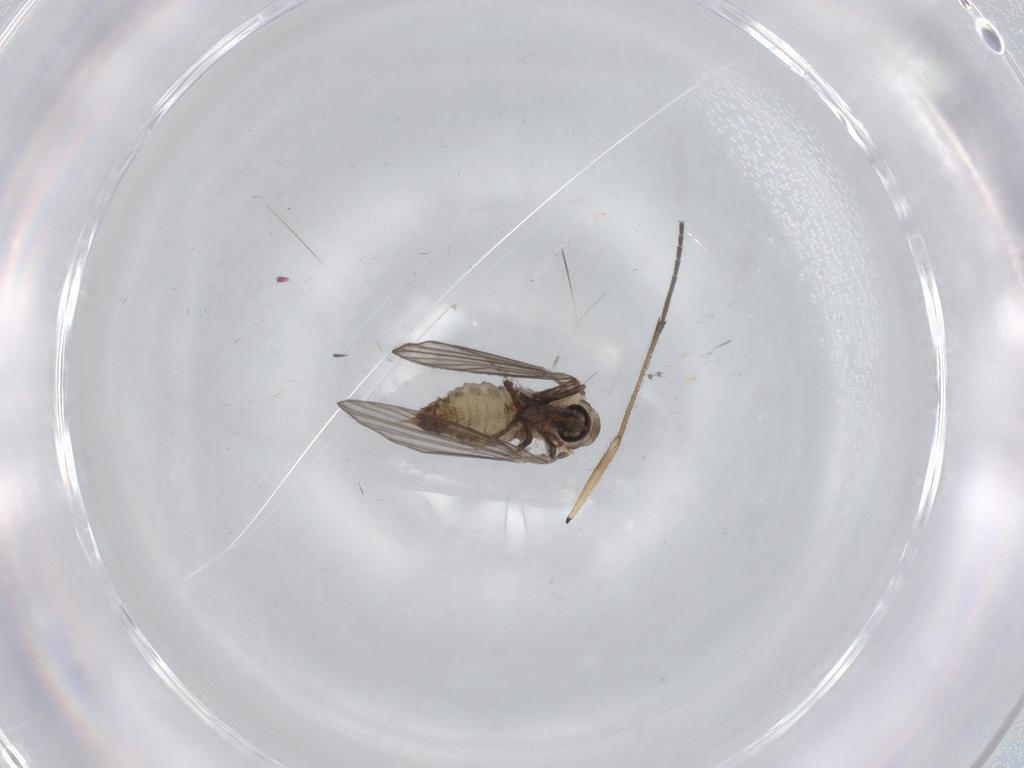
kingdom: Animalia
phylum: Arthropoda
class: Insecta
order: Diptera
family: Psychodidae
